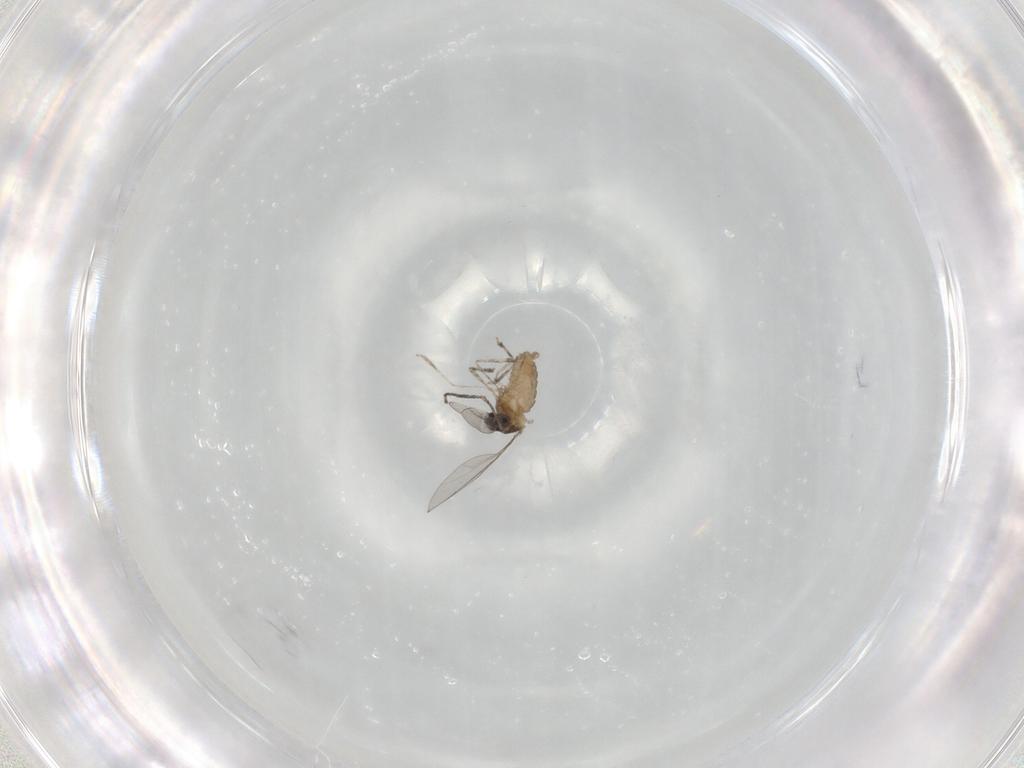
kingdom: Animalia
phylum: Arthropoda
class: Insecta
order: Diptera
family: Cecidomyiidae
